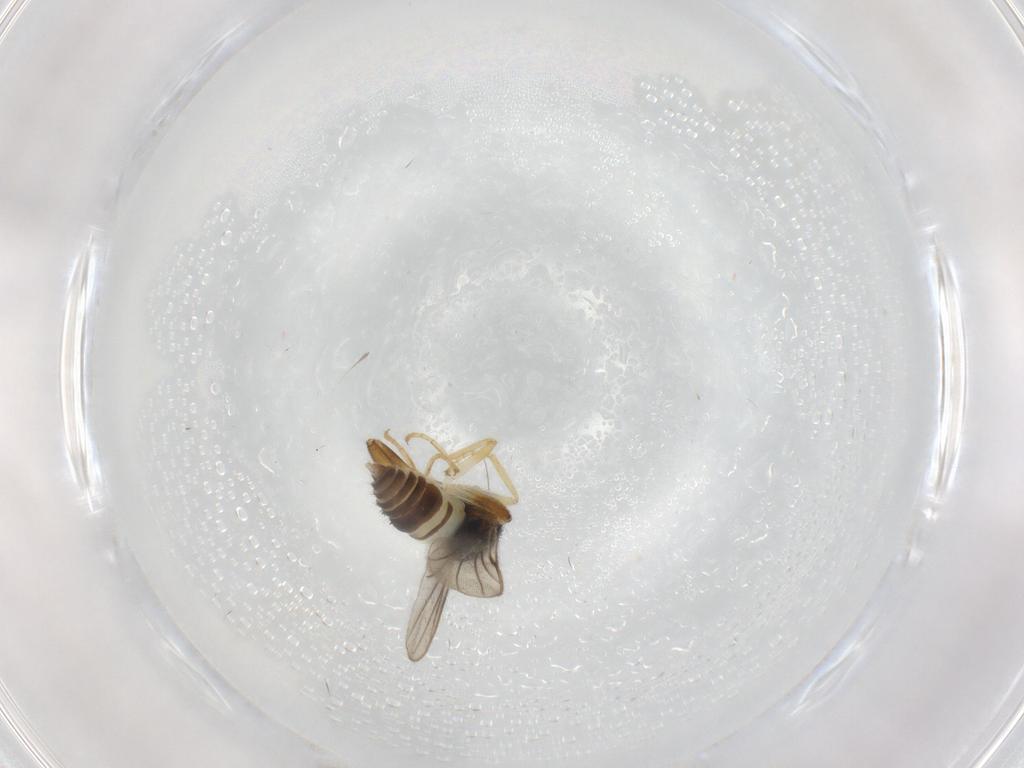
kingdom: Animalia
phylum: Arthropoda
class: Insecta
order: Diptera
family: Hybotidae
